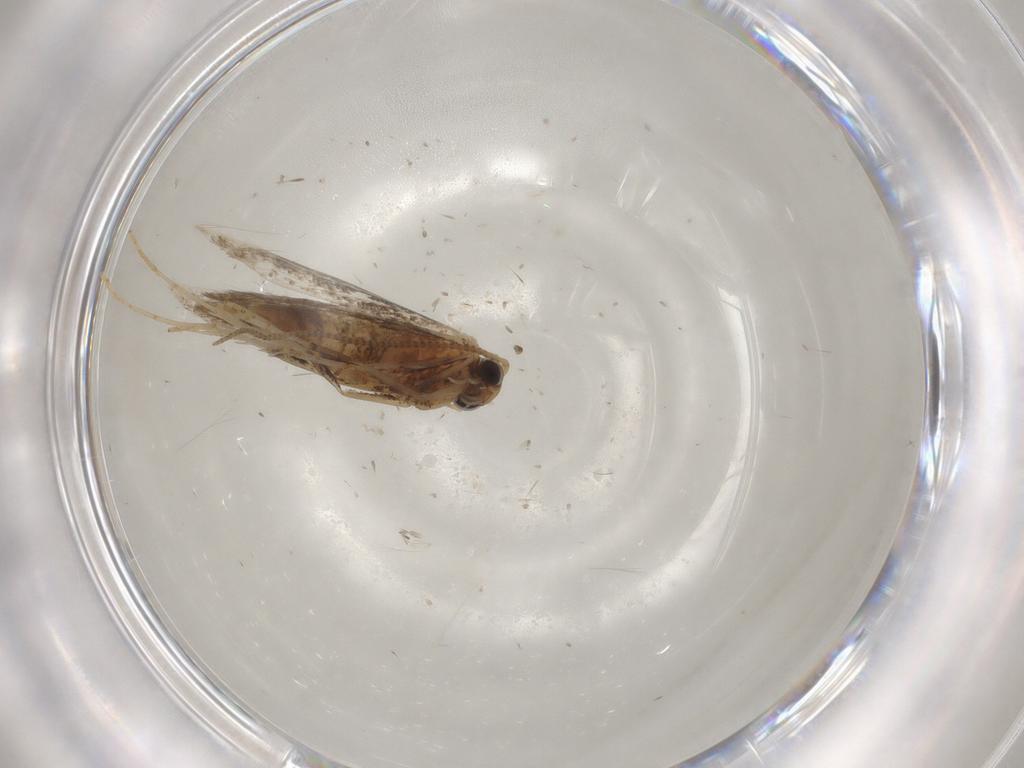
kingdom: Animalia
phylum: Arthropoda
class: Insecta
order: Lepidoptera
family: Gracillariidae
